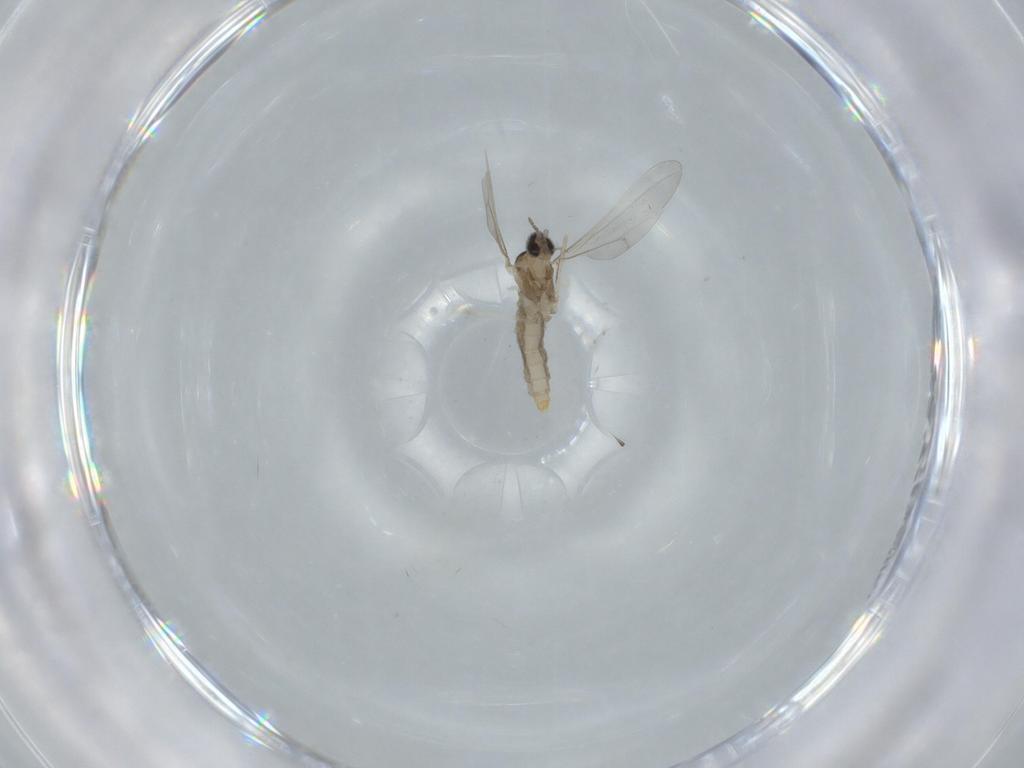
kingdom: Animalia
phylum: Arthropoda
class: Insecta
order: Diptera
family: Cecidomyiidae
